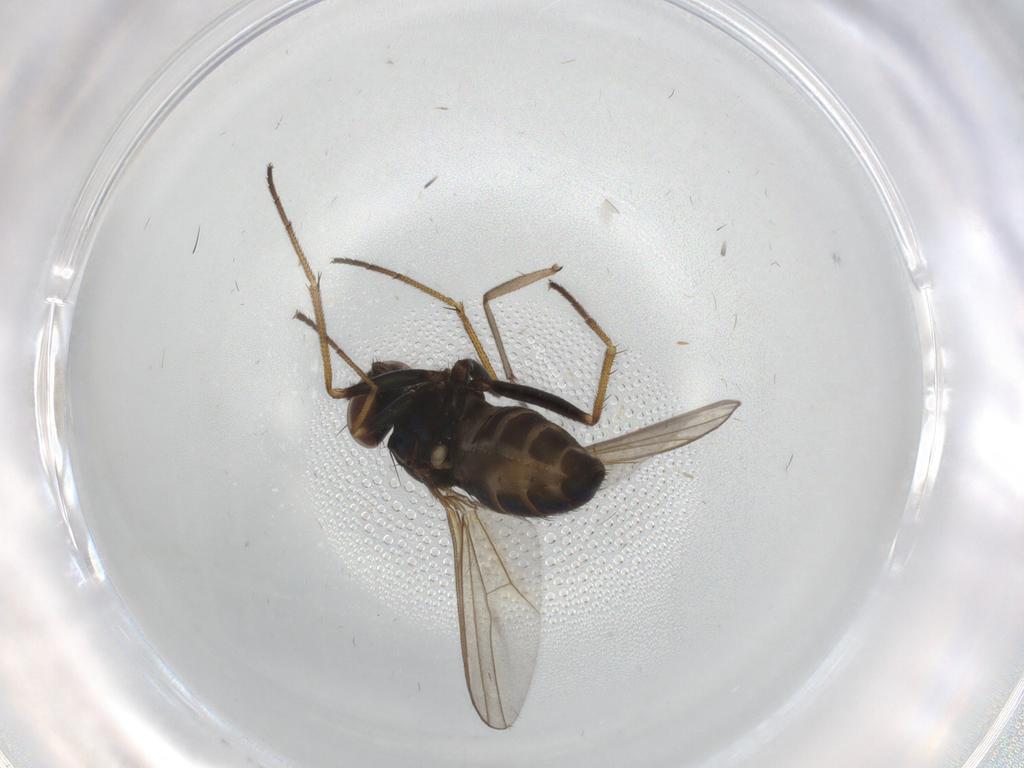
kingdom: Animalia
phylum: Arthropoda
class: Insecta
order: Diptera
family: Dolichopodidae
